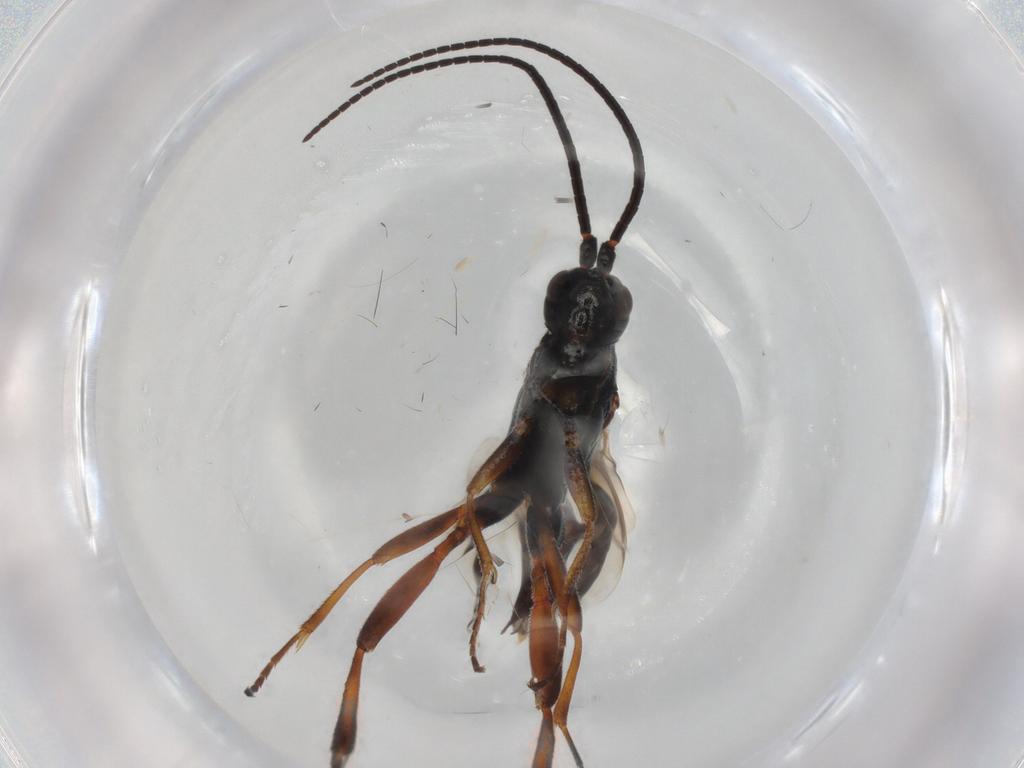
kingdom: Animalia
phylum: Arthropoda
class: Insecta
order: Hymenoptera
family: Braconidae
